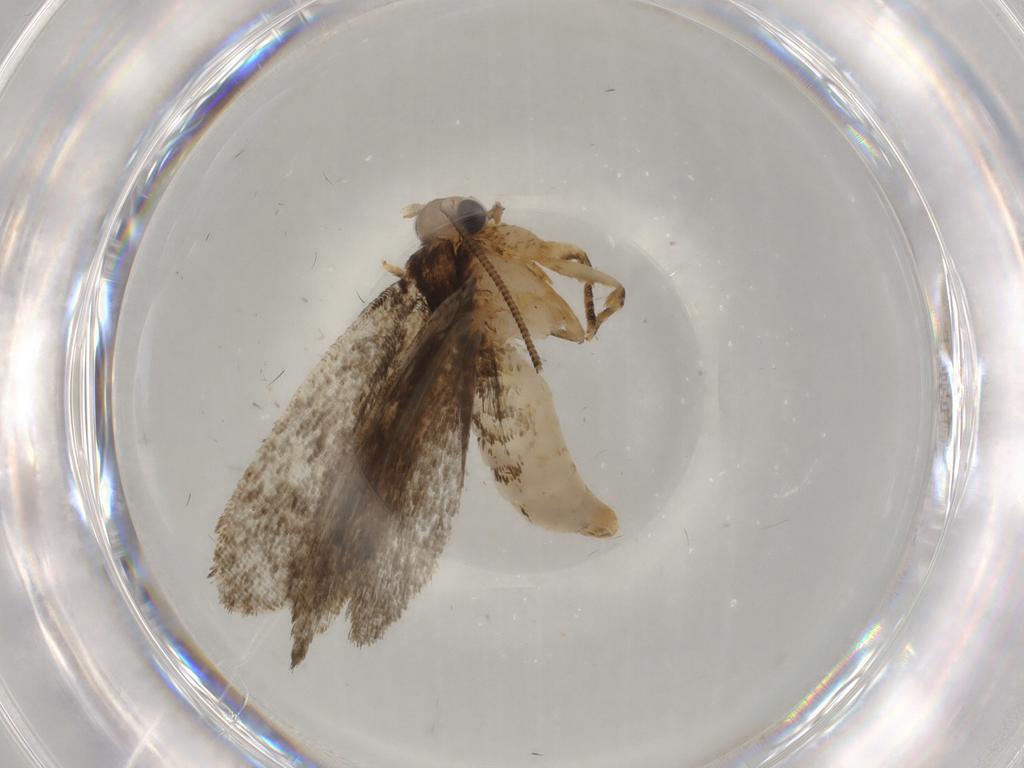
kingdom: Animalia
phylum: Arthropoda
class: Insecta
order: Lepidoptera
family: Tineidae
